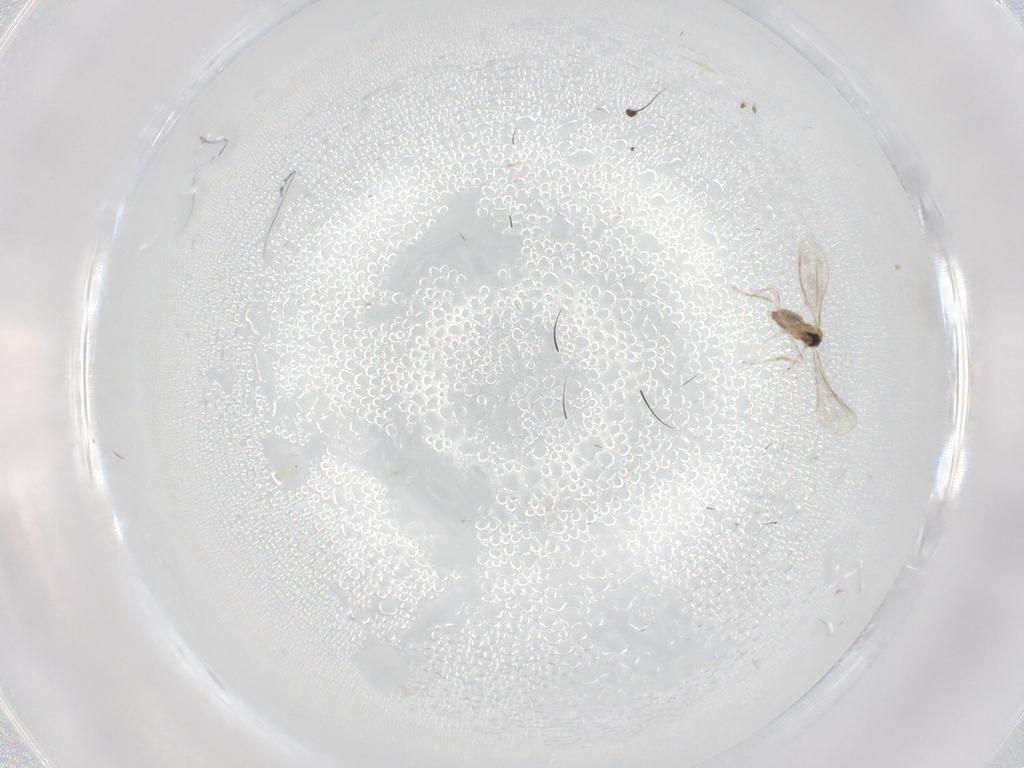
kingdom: Animalia
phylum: Arthropoda
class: Insecta
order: Diptera
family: Dolichopodidae
